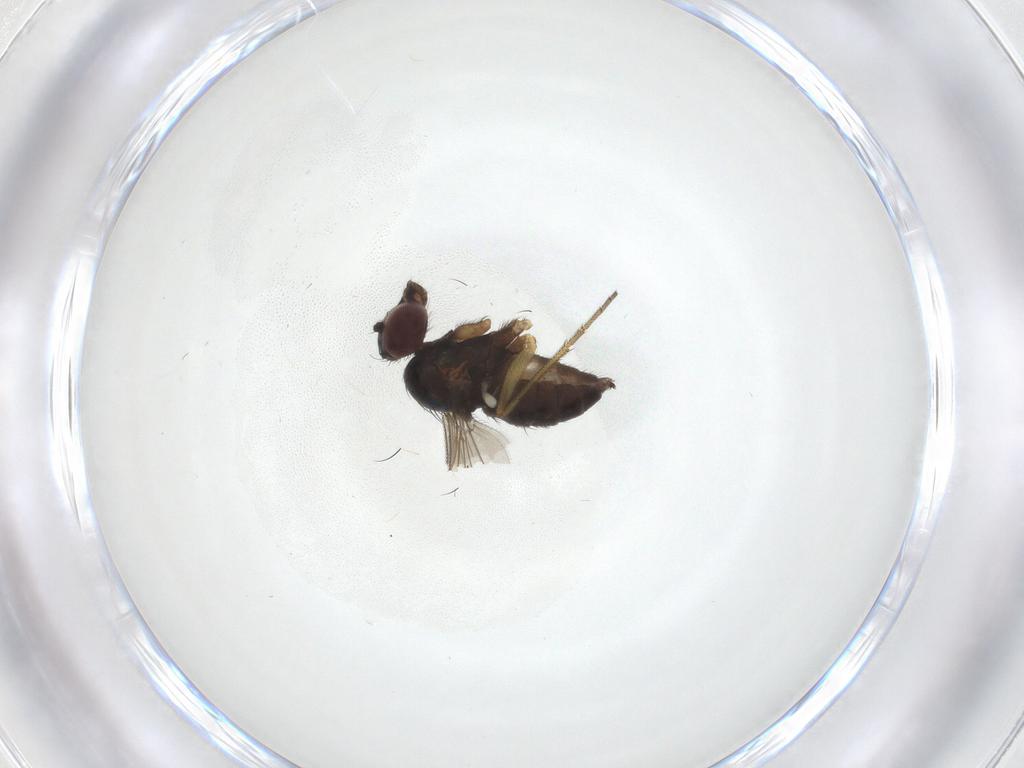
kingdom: Animalia
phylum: Arthropoda
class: Insecta
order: Diptera
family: Dolichopodidae
